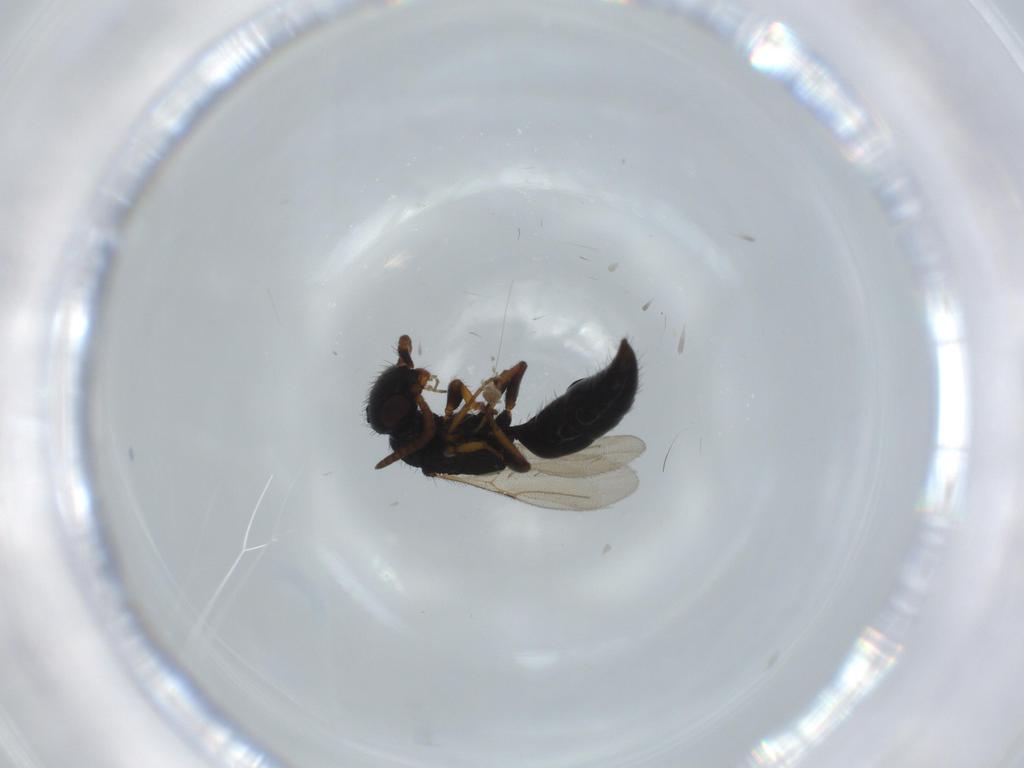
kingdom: Animalia
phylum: Arthropoda
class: Insecta
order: Hymenoptera
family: Bethylidae
